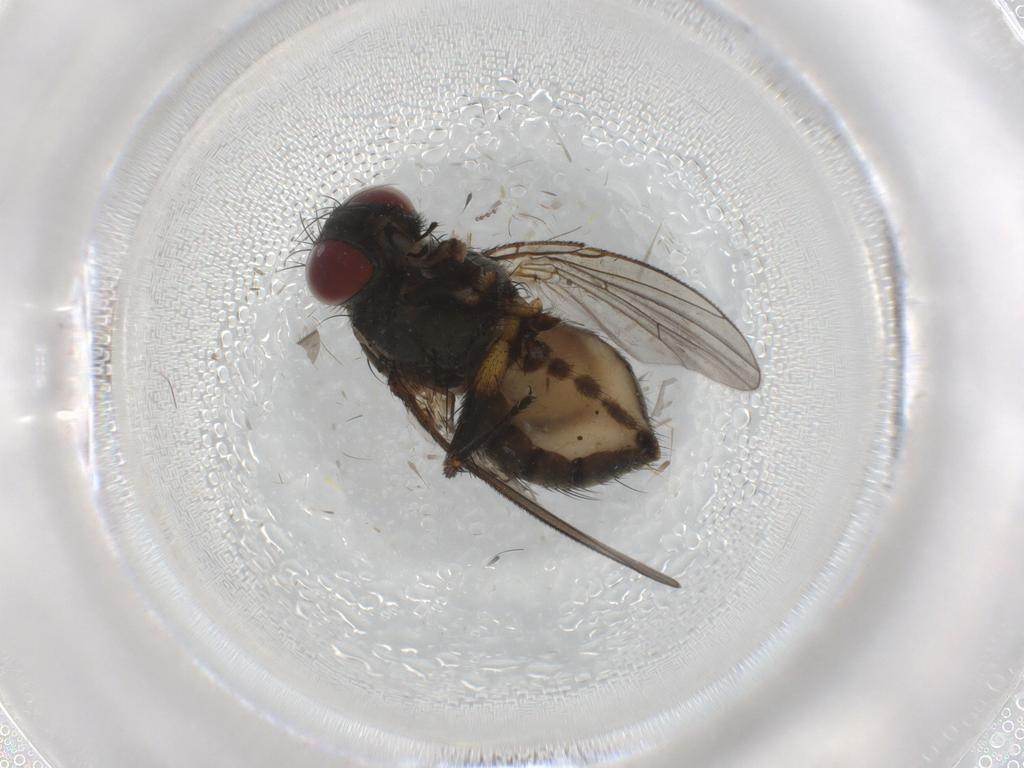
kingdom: Animalia
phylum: Arthropoda
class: Insecta
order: Diptera
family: Muscidae
